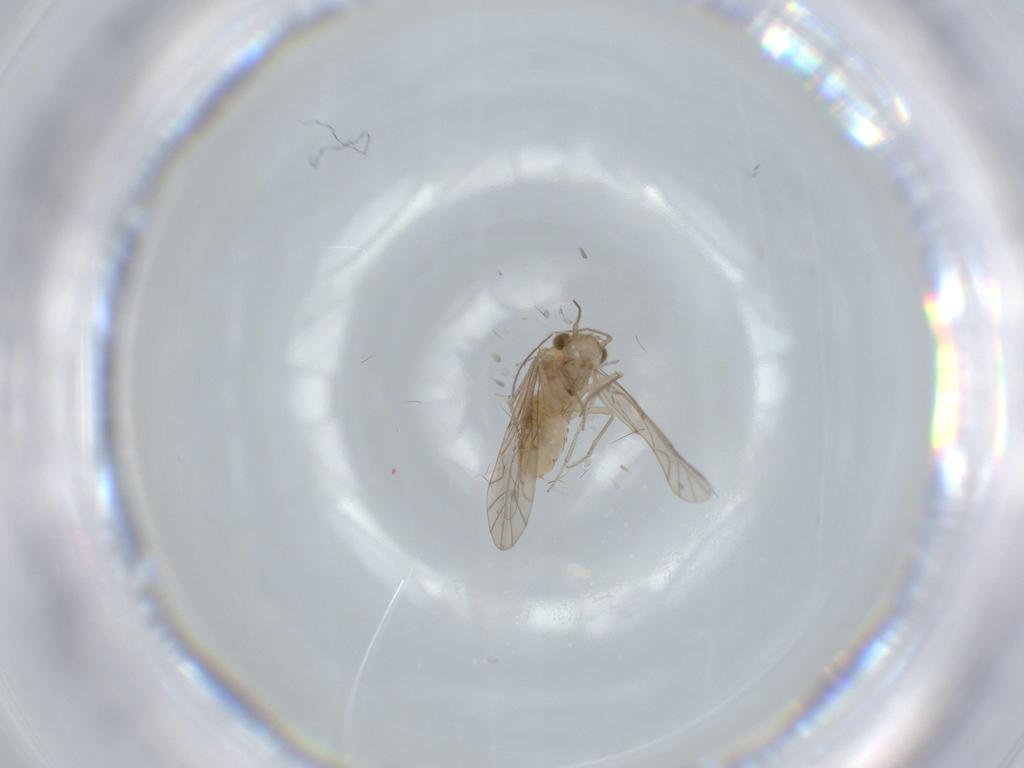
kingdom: Animalia
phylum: Arthropoda
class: Insecta
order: Psocodea
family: Lachesillidae
